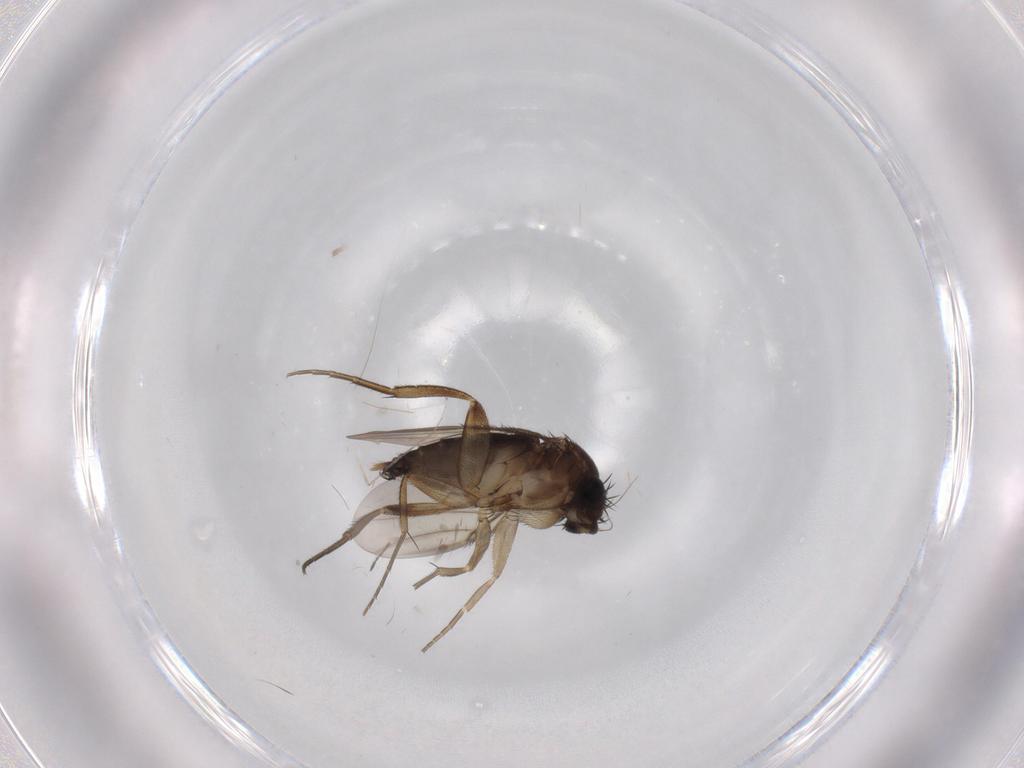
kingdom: Animalia
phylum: Arthropoda
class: Insecta
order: Diptera
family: Phoridae
